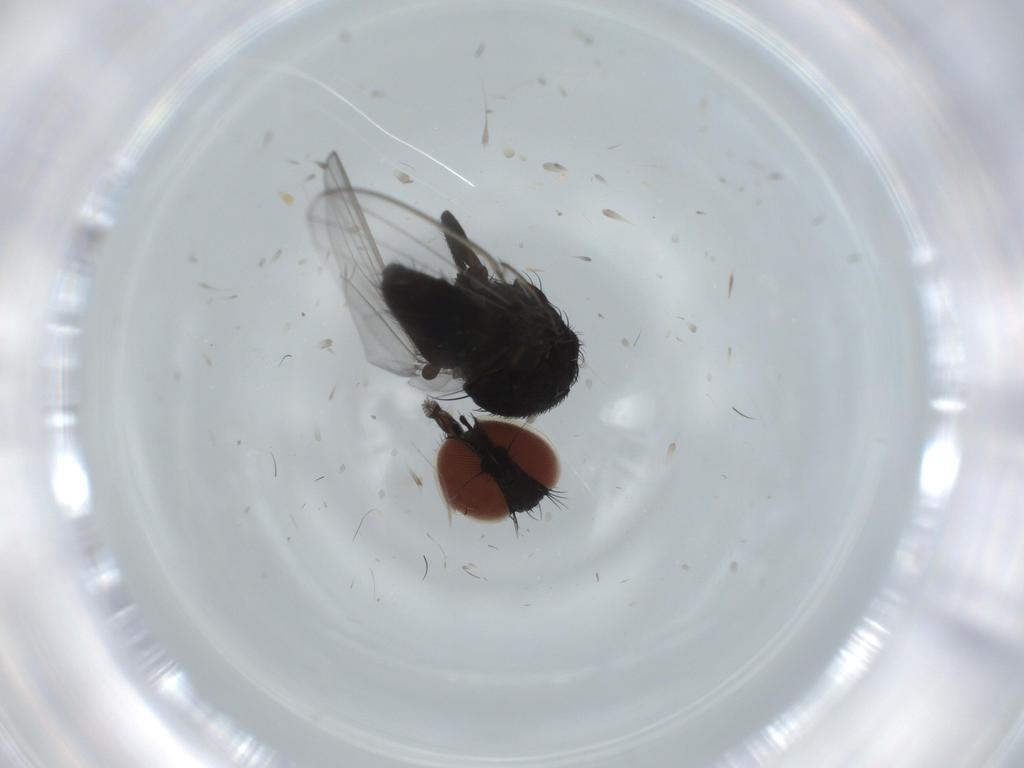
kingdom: Animalia
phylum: Arthropoda
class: Insecta
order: Diptera
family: Milichiidae
